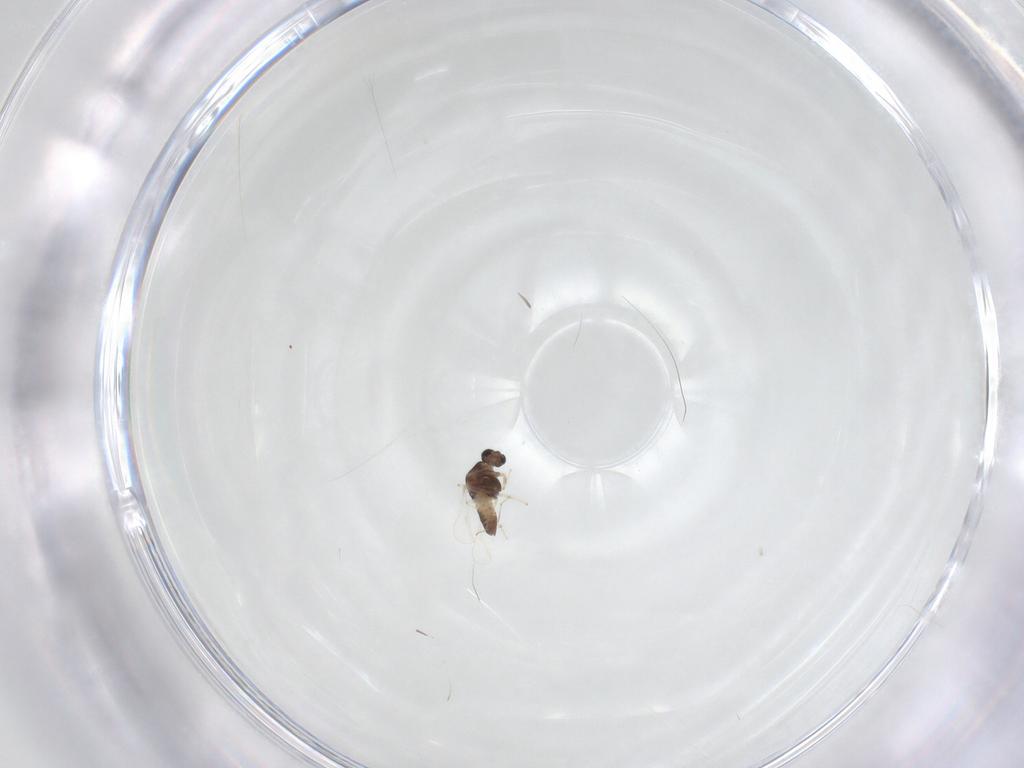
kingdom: Animalia
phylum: Arthropoda
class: Insecta
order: Diptera
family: Chironomidae
